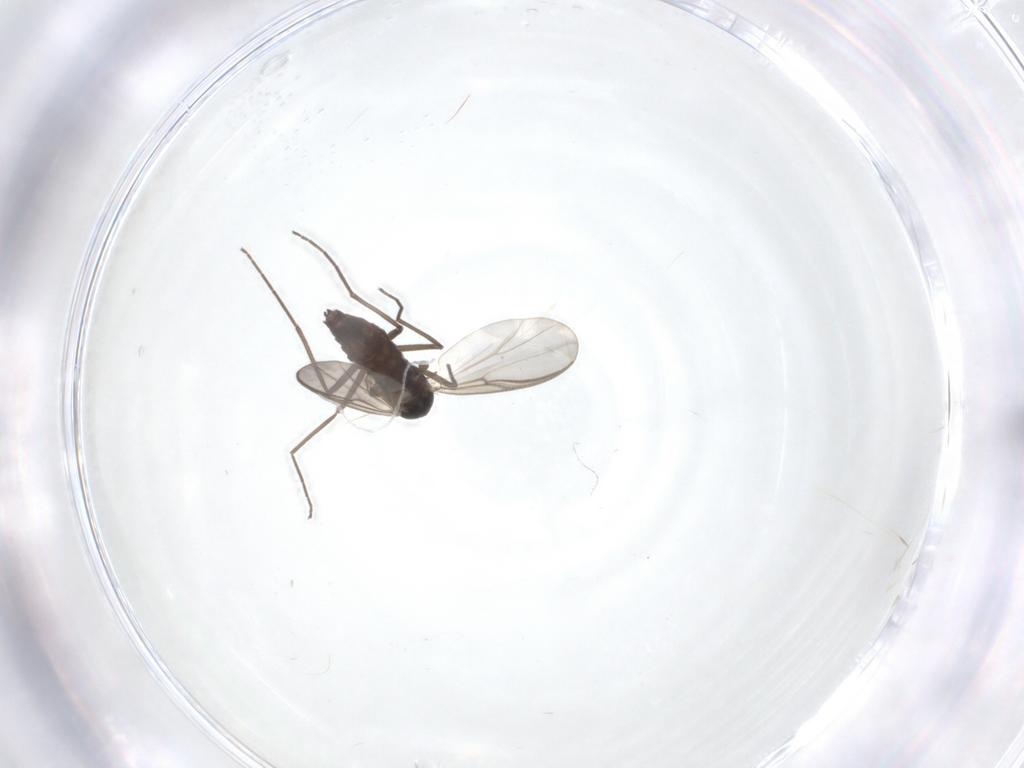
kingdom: Animalia
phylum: Arthropoda
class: Insecta
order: Diptera
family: Chironomidae
